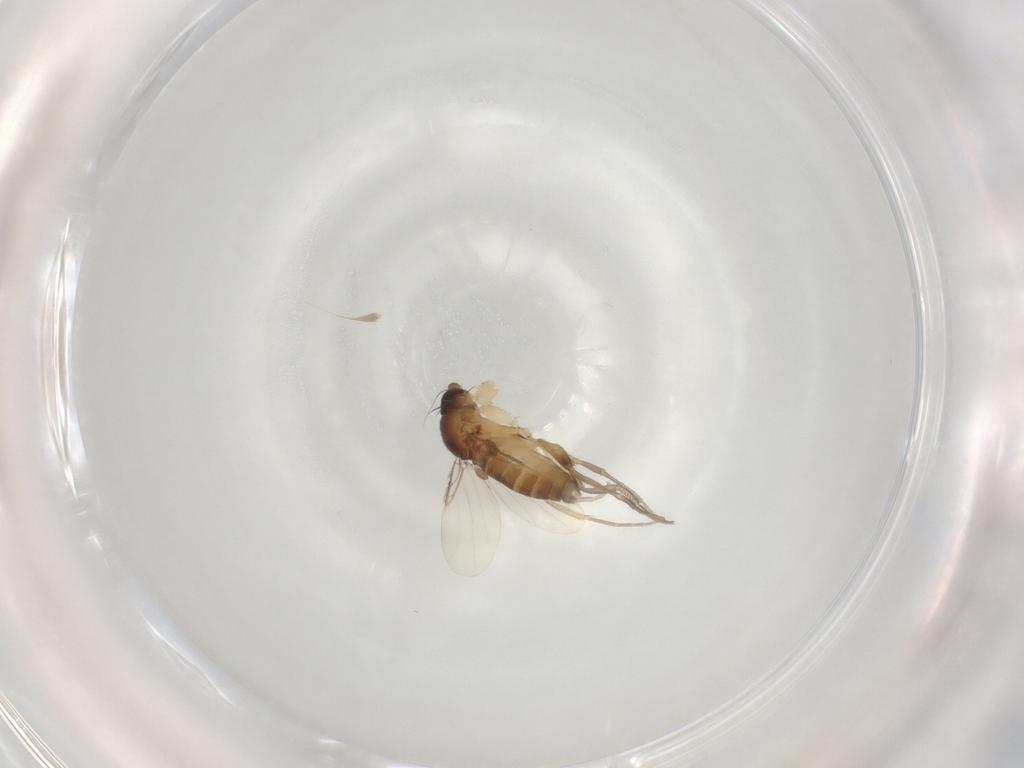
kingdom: Animalia
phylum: Arthropoda
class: Insecta
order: Diptera
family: Phoridae
